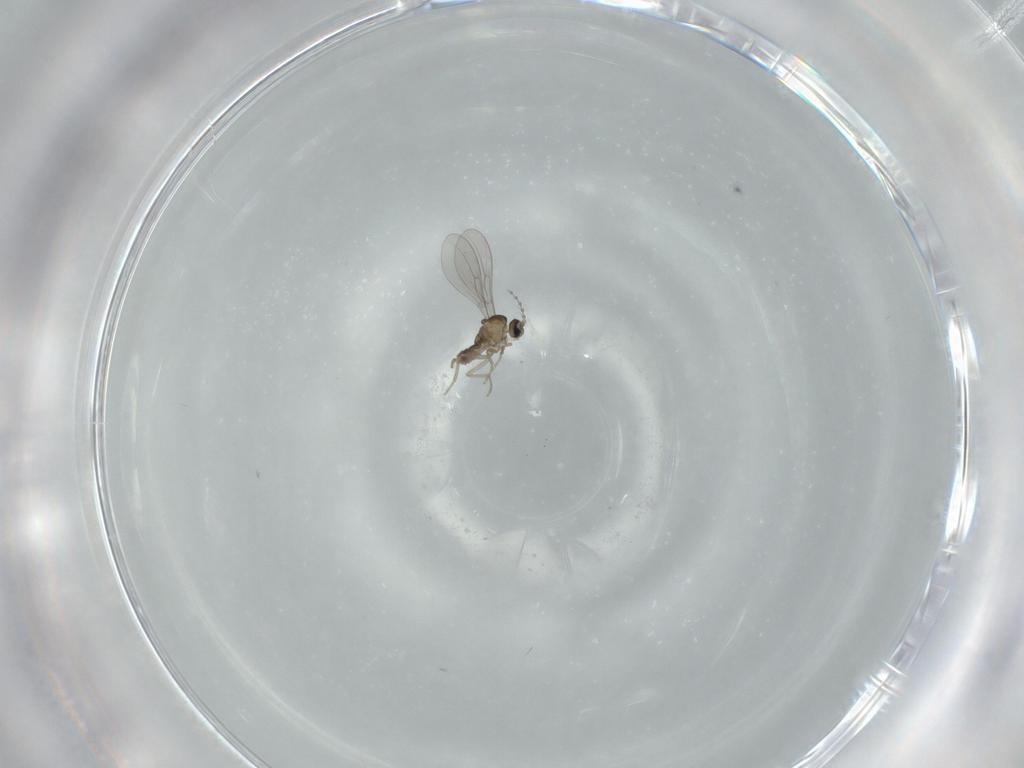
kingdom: Animalia
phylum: Arthropoda
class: Insecta
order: Diptera
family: Cecidomyiidae
